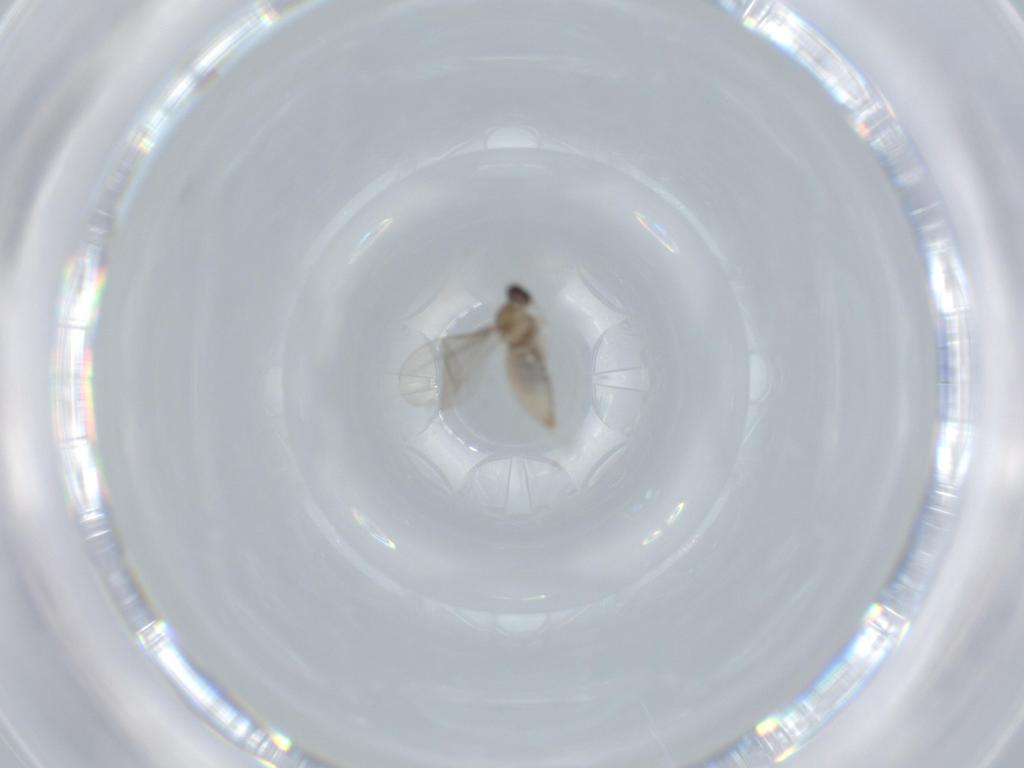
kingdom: Animalia
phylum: Arthropoda
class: Insecta
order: Diptera
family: Cecidomyiidae
